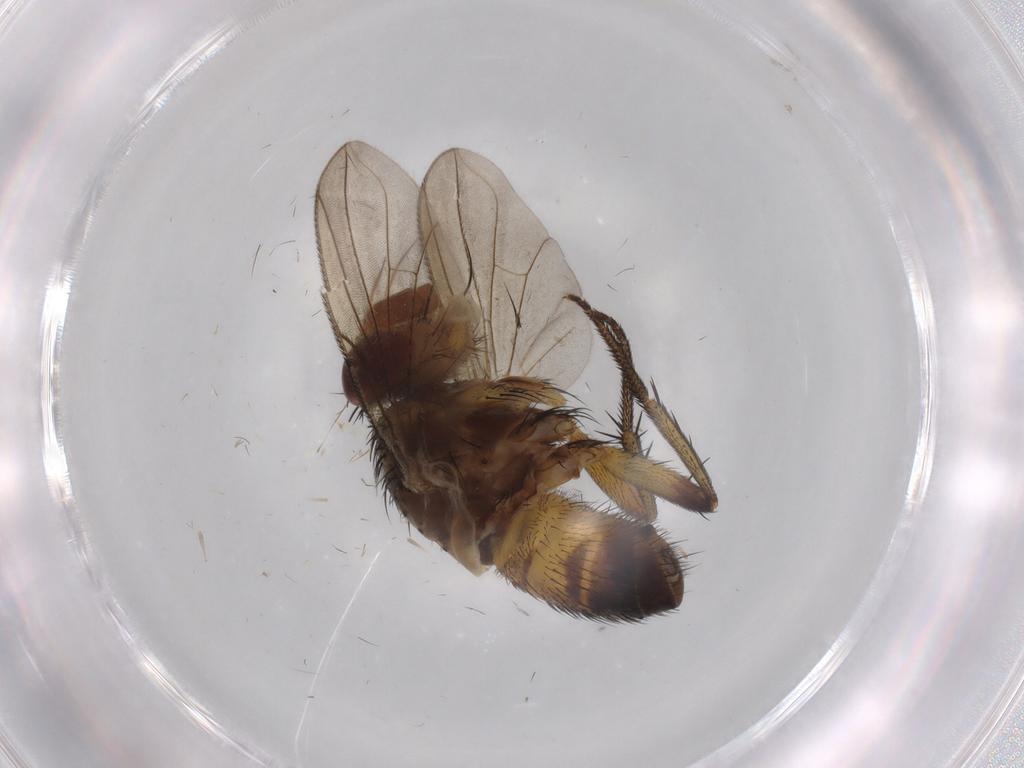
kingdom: Animalia
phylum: Arthropoda
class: Insecta
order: Diptera
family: Tachinidae
